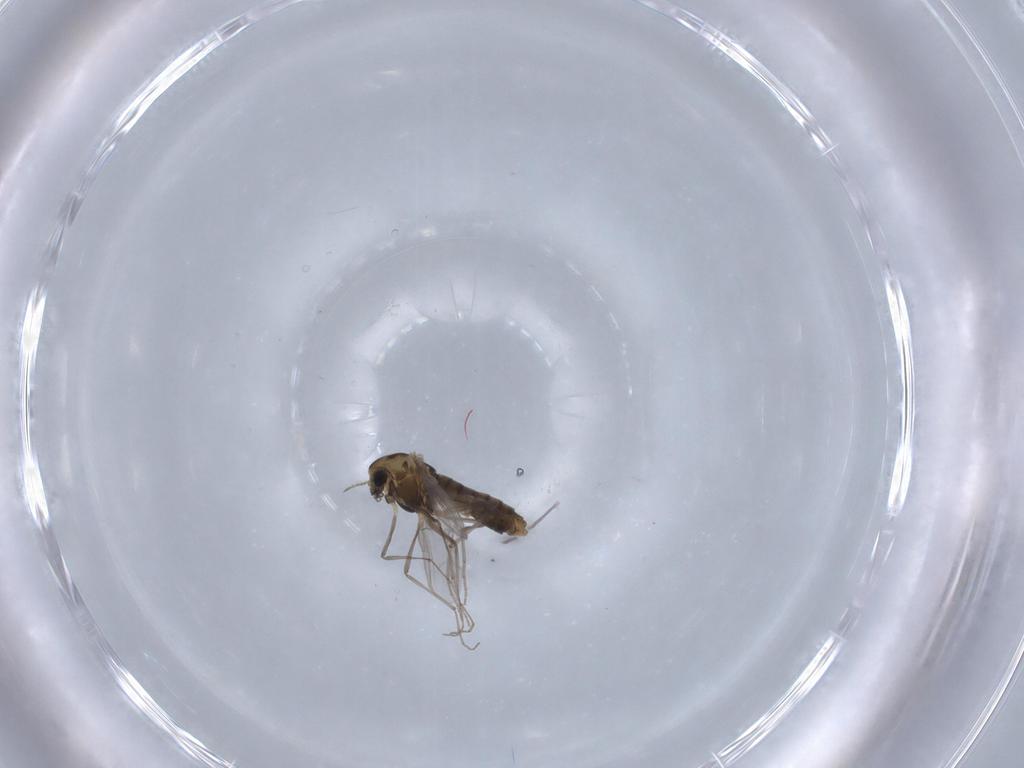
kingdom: Animalia
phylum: Arthropoda
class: Insecta
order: Diptera
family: Chironomidae
